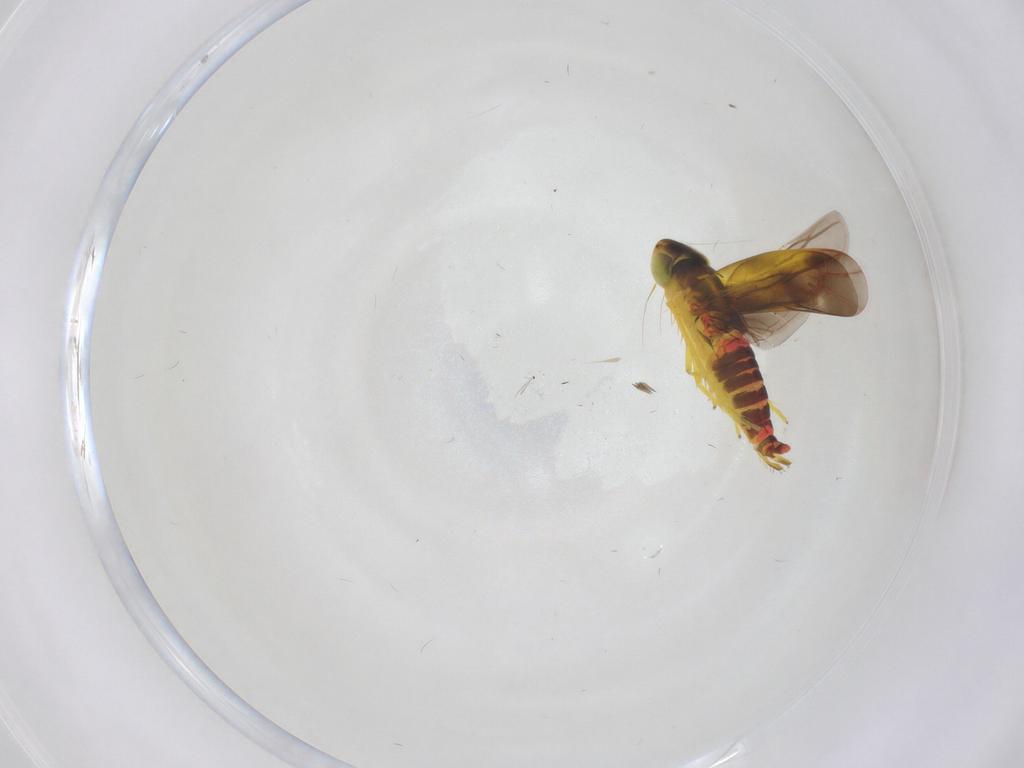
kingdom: Animalia
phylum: Arthropoda
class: Insecta
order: Hemiptera
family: Cicadellidae
